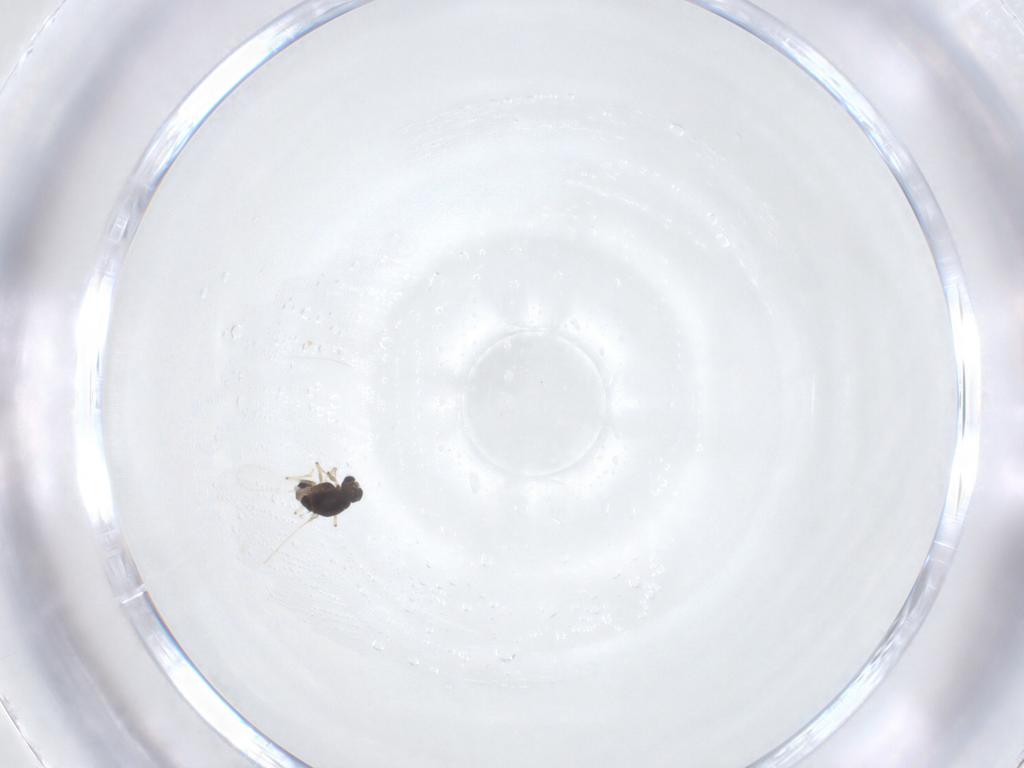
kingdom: Animalia
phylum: Arthropoda
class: Insecta
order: Diptera
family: Chironomidae
